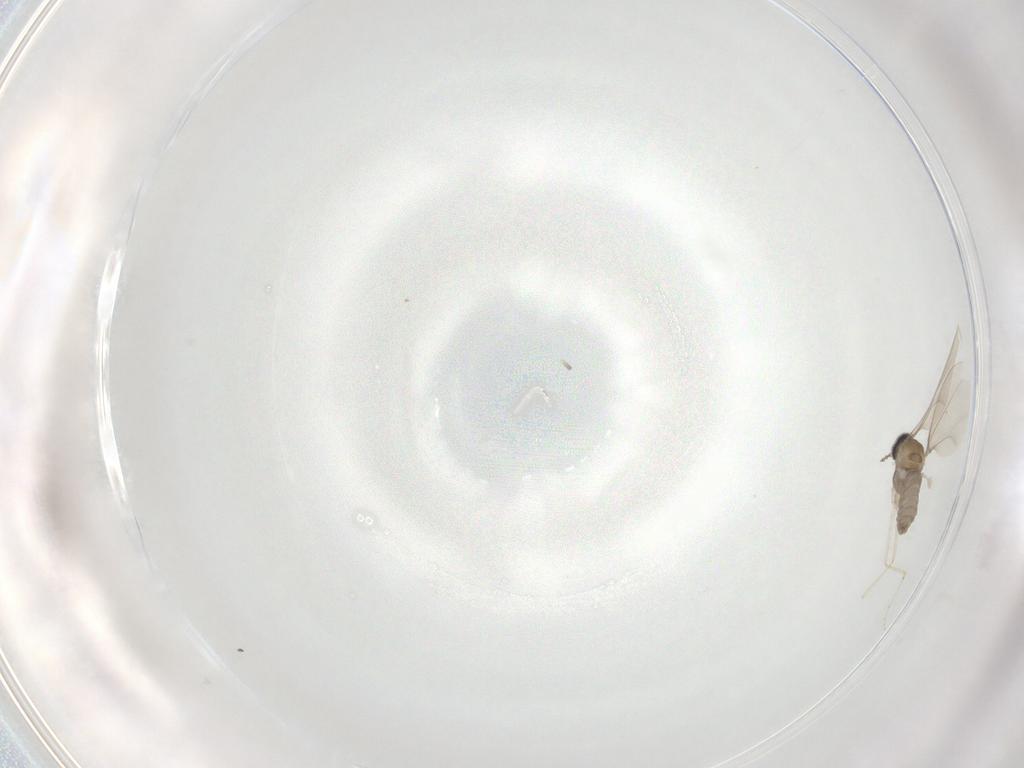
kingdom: Animalia
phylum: Arthropoda
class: Insecta
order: Diptera
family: Cecidomyiidae
